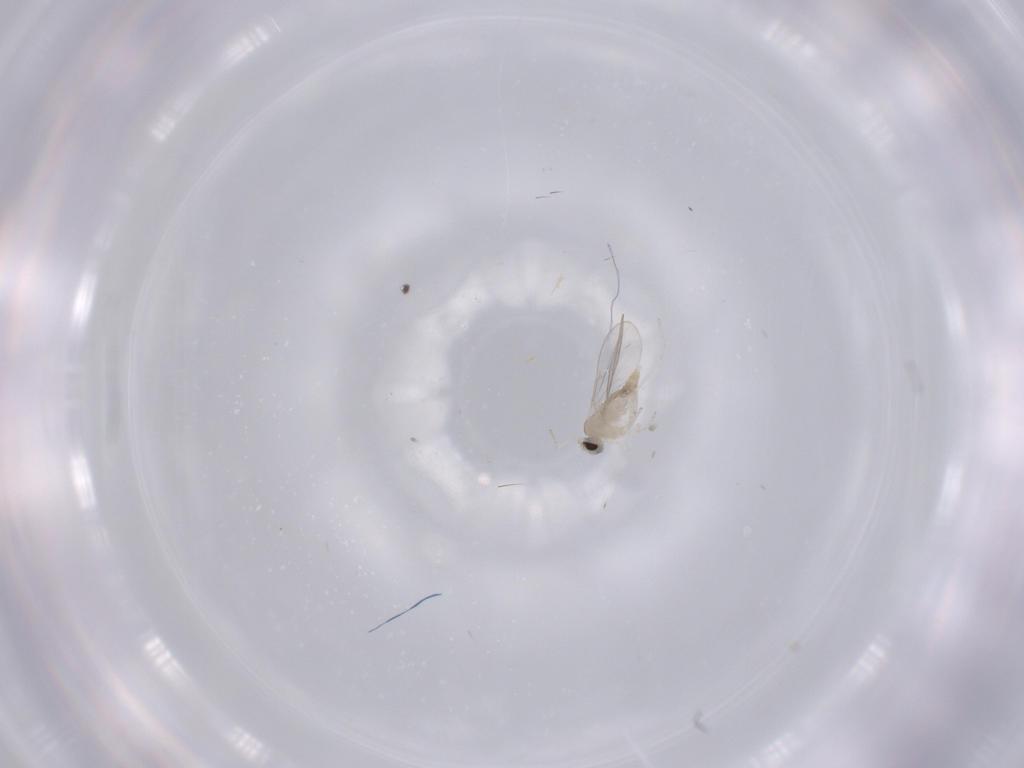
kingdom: Animalia
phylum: Arthropoda
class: Insecta
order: Diptera
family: Cecidomyiidae
